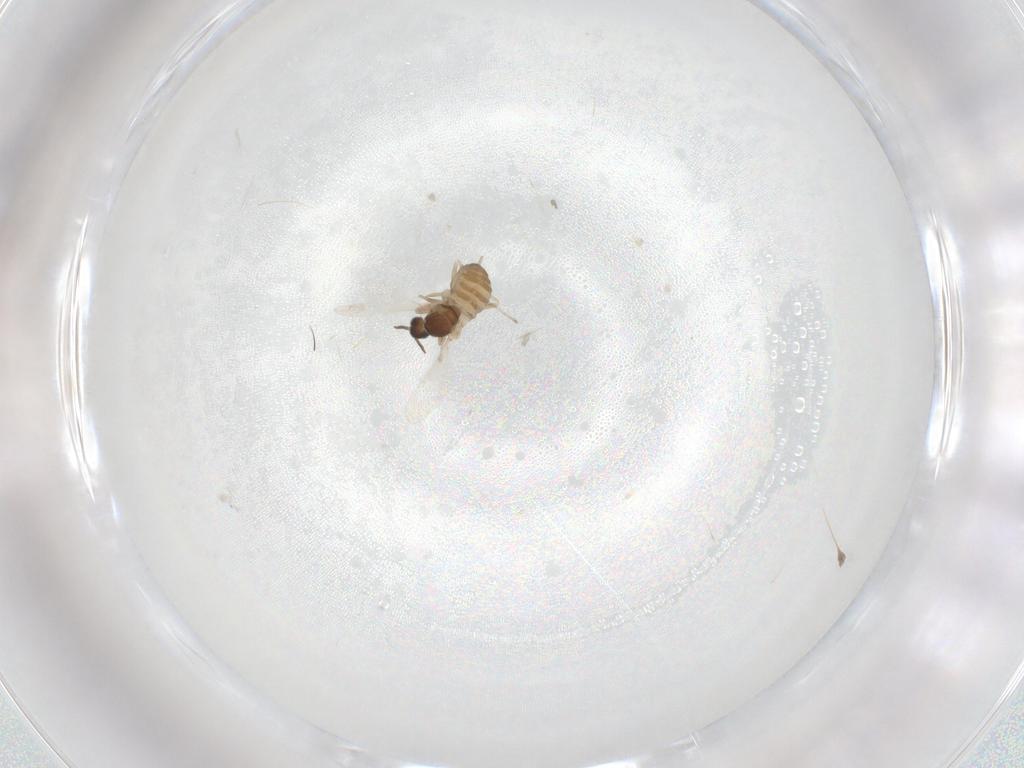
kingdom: Animalia
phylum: Arthropoda
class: Insecta
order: Diptera
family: Cecidomyiidae
